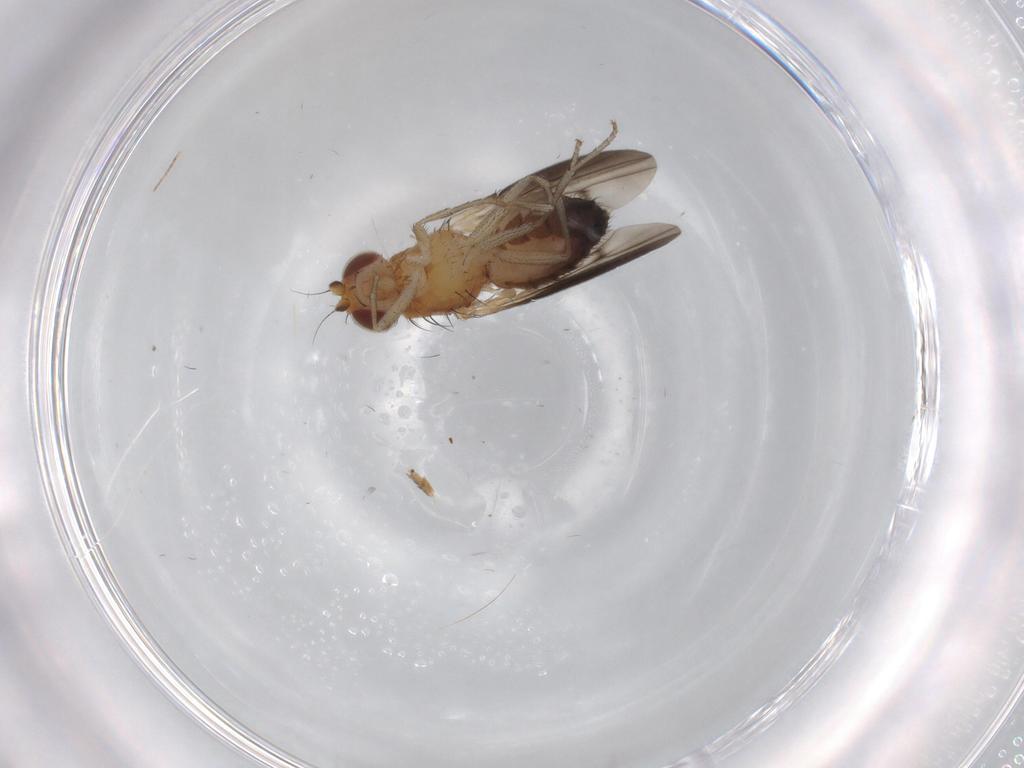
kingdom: Animalia
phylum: Arthropoda
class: Insecta
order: Diptera
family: Heleomyzidae
